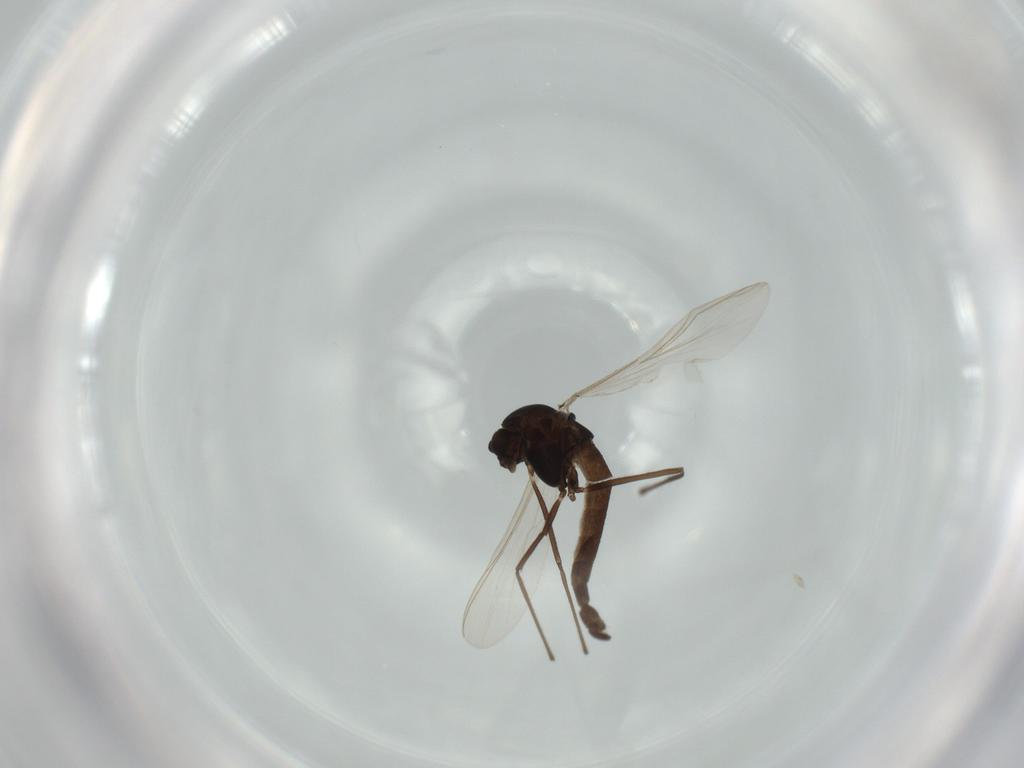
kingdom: Animalia
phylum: Arthropoda
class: Insecta
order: Diptera
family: Chironomidae
